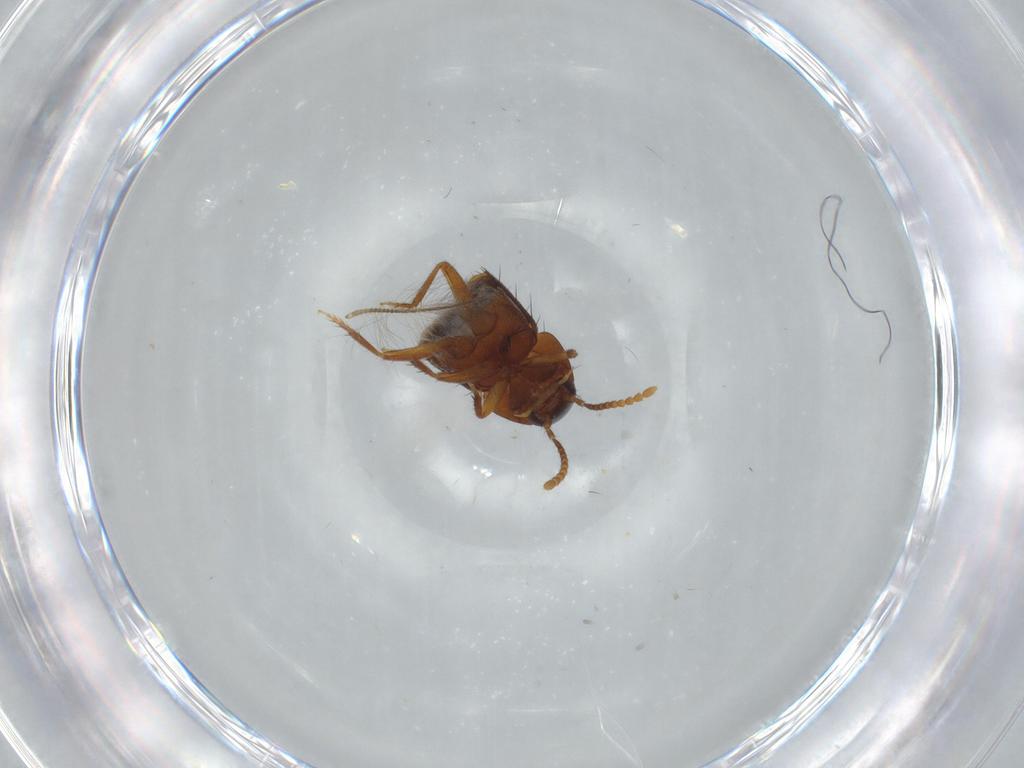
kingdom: Animalia
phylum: Arthropoda
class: Insecta
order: Coleoptera
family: Staphylinidae
